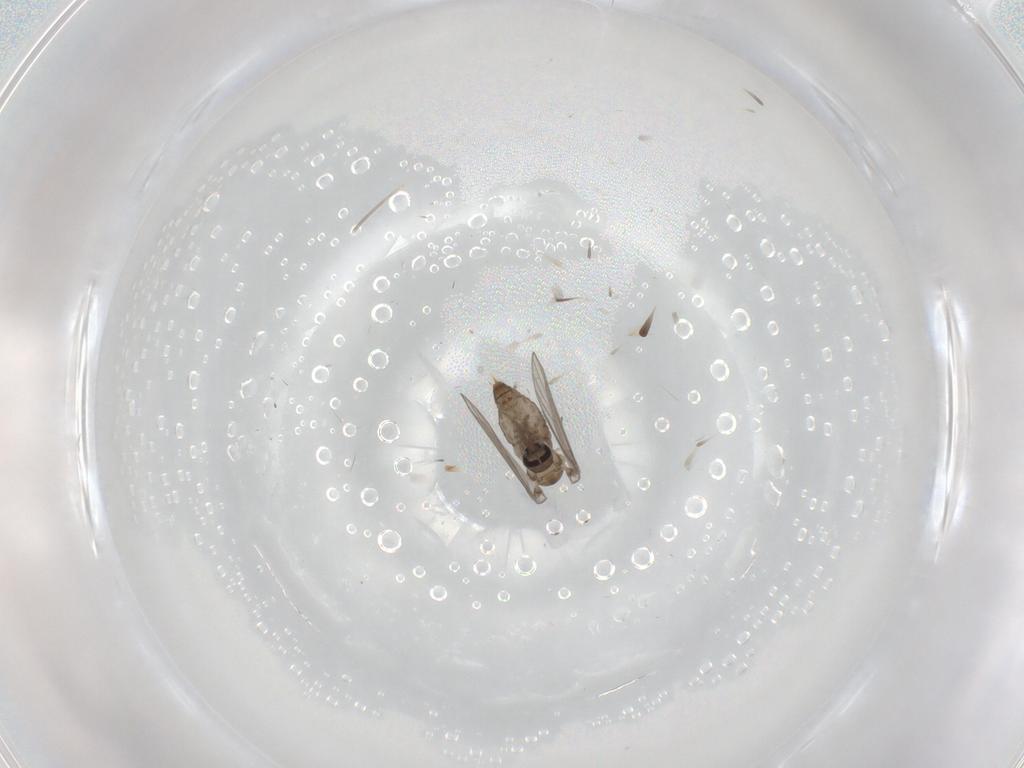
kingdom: Animalia
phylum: Arthropoda
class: Insecta
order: Diptera
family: Psychodidae
